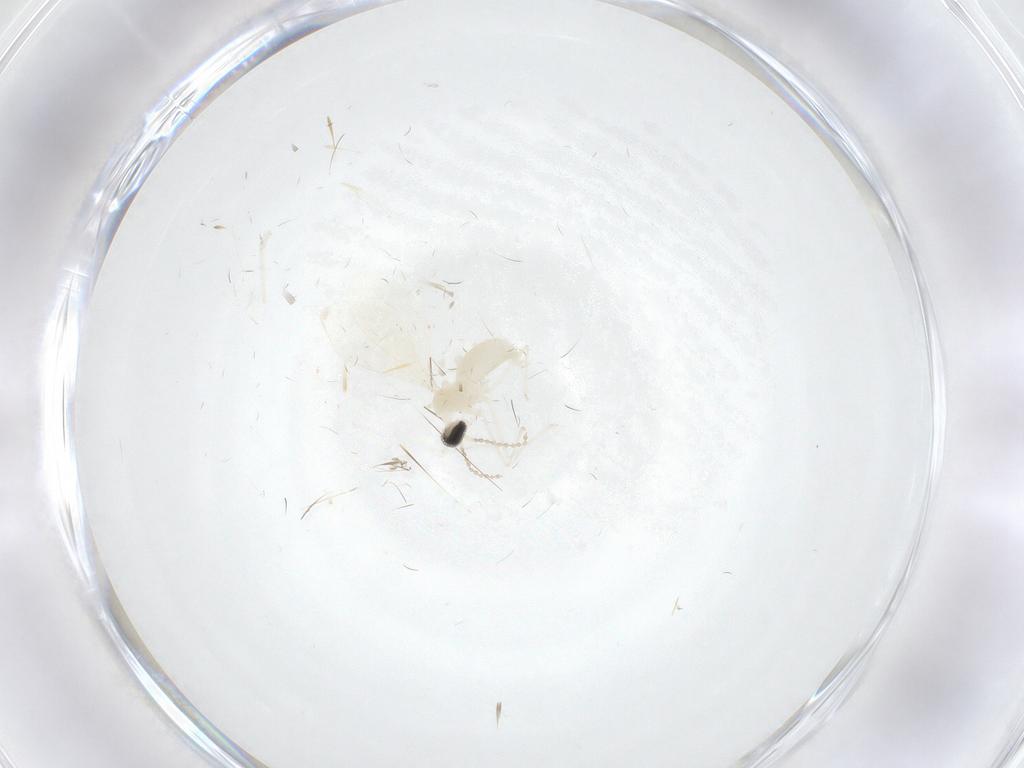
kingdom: Animalia
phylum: Arthropoda
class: Insecta
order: Diptera
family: Cecidomyiidae
